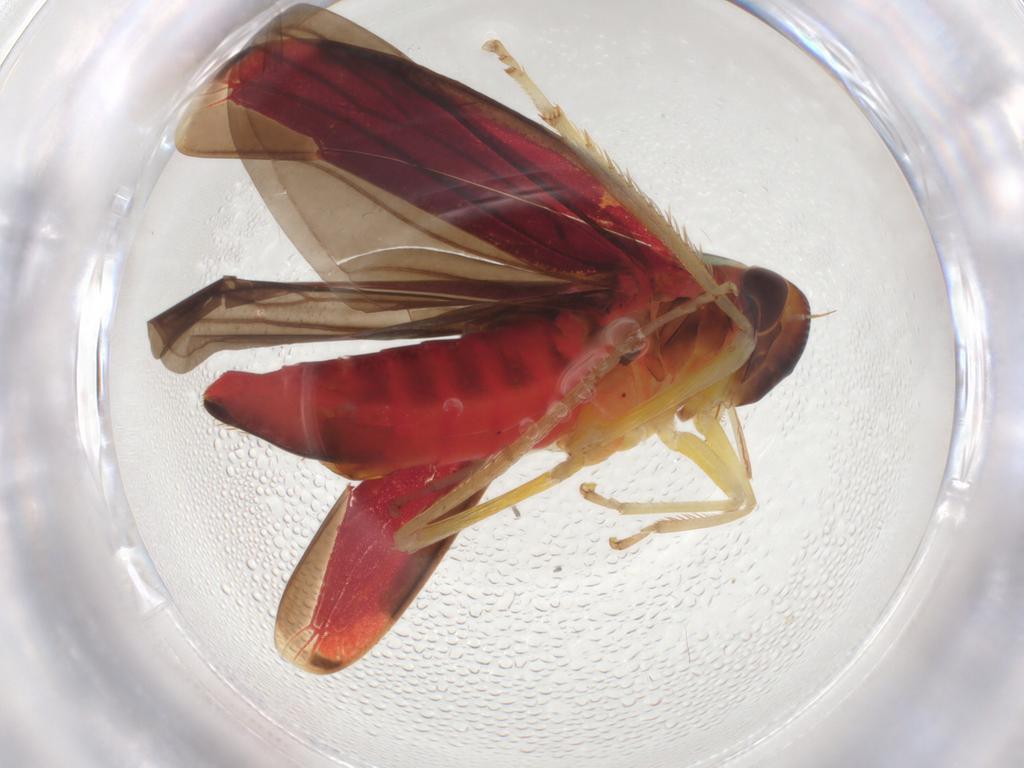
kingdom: Animalia
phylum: Arthropoda
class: Insecta
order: Hemiptera
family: Cicadellidae
